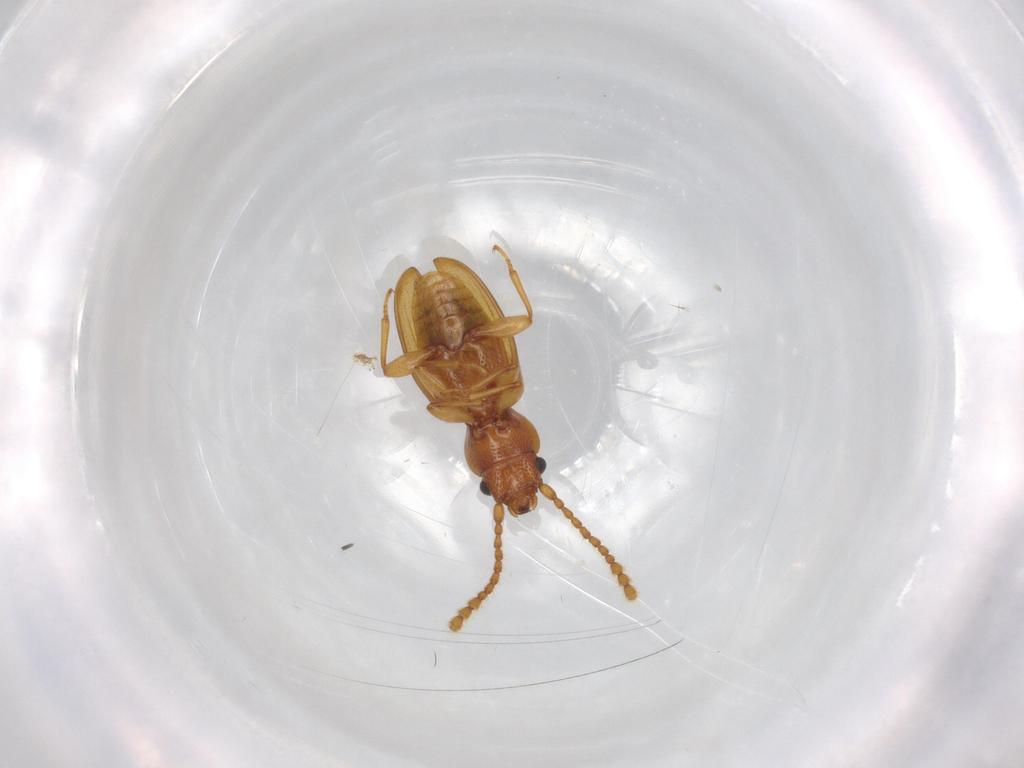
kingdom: Animalia
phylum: Arthropoda
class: Insecta
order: Coleoptera
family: Laemophloeidae
